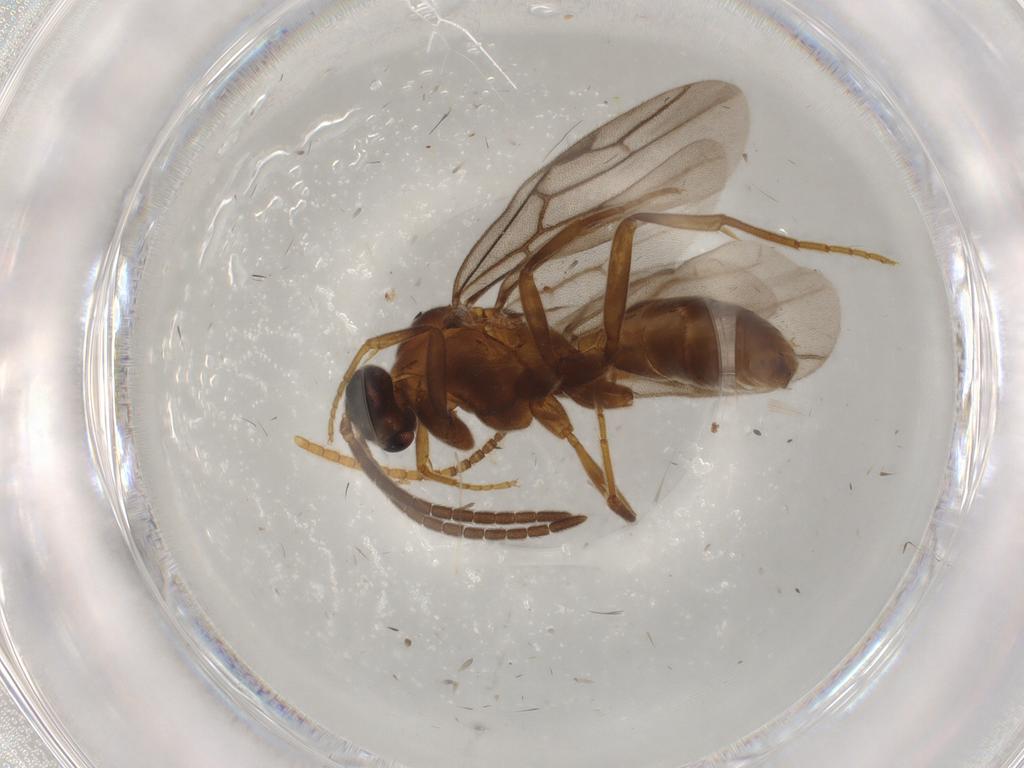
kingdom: Animalia
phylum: Arthropoda
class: Insecta
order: Hymenoptera
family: Formicidae
